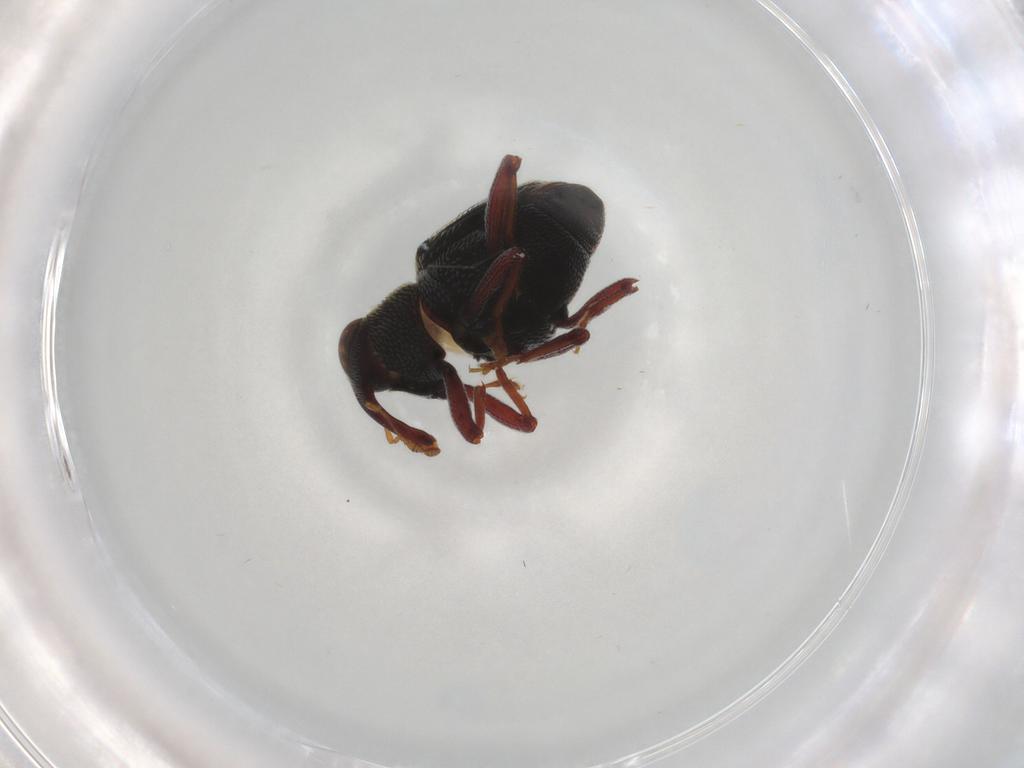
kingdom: Animalia
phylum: Arthropoda
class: Insecta
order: Coleoptera
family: Curculionidae
